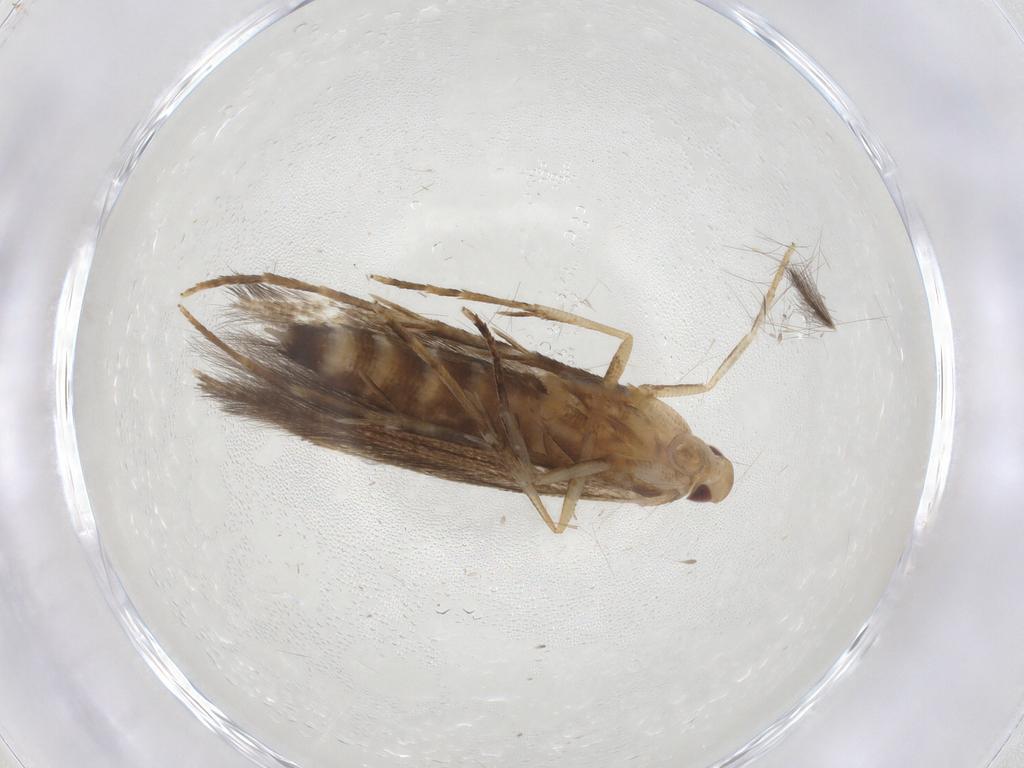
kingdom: Animalia
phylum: Arthropoda
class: Insecta
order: Lepidoptera
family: Cosmopterigidae
